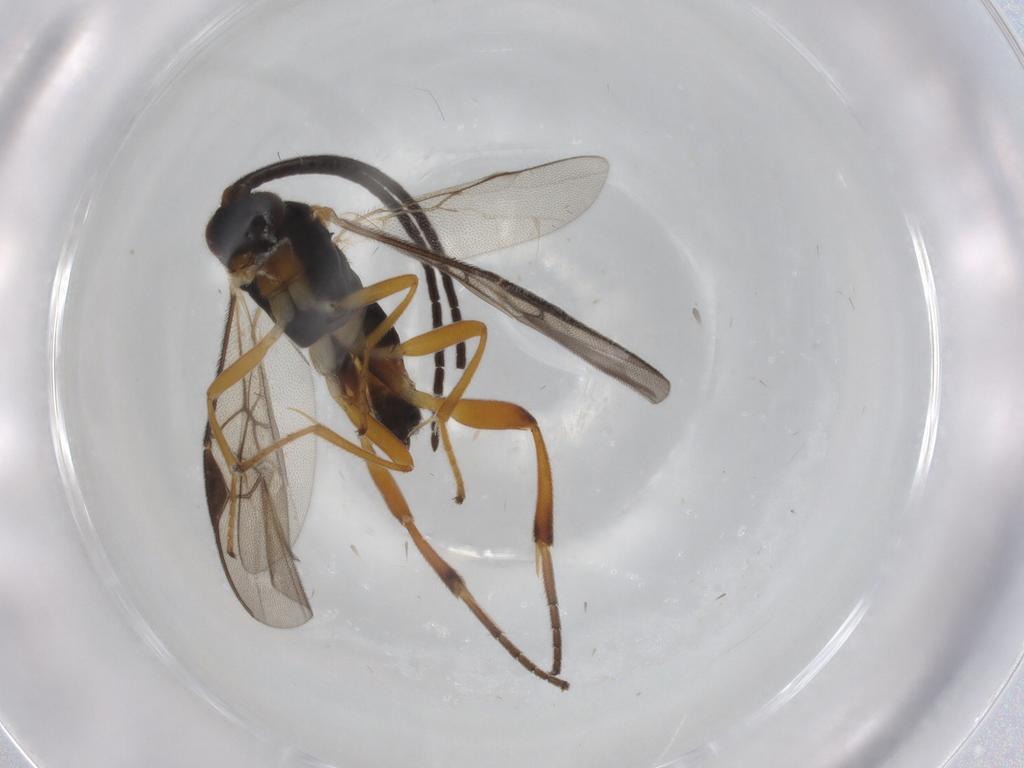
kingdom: Animalia
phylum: Arthropoda
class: Insecta
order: Hymenoptera
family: Braconidae
